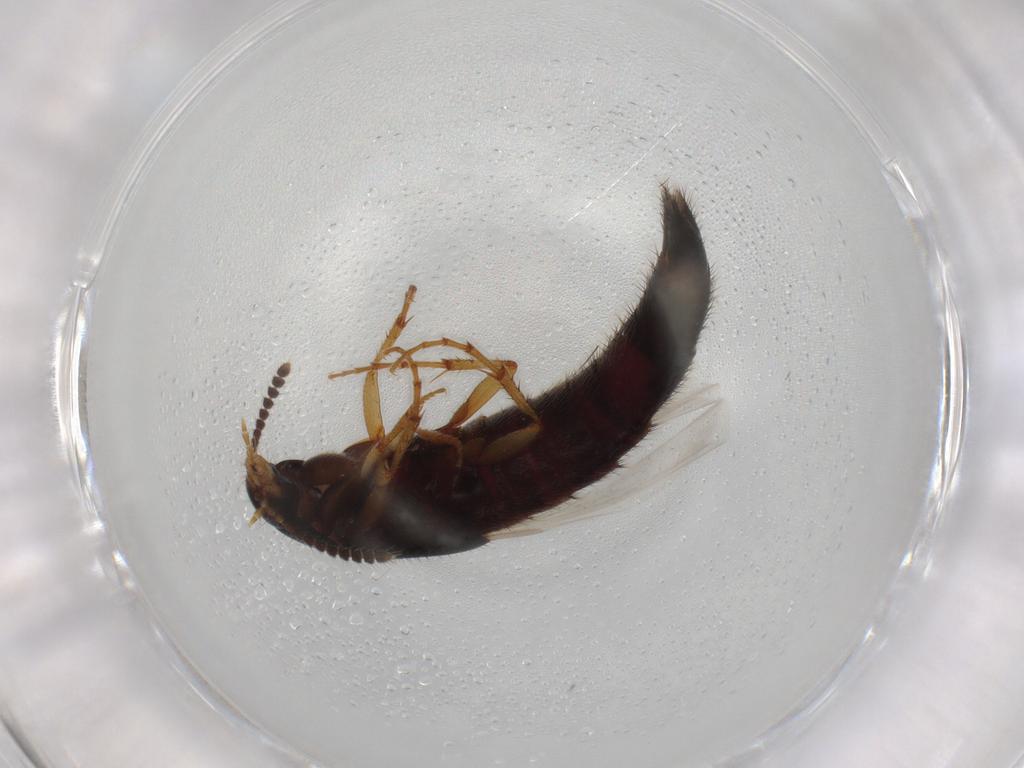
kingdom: Animalia
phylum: Arthropoda
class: Insecta
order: Coleoptera
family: Staphylinidae
